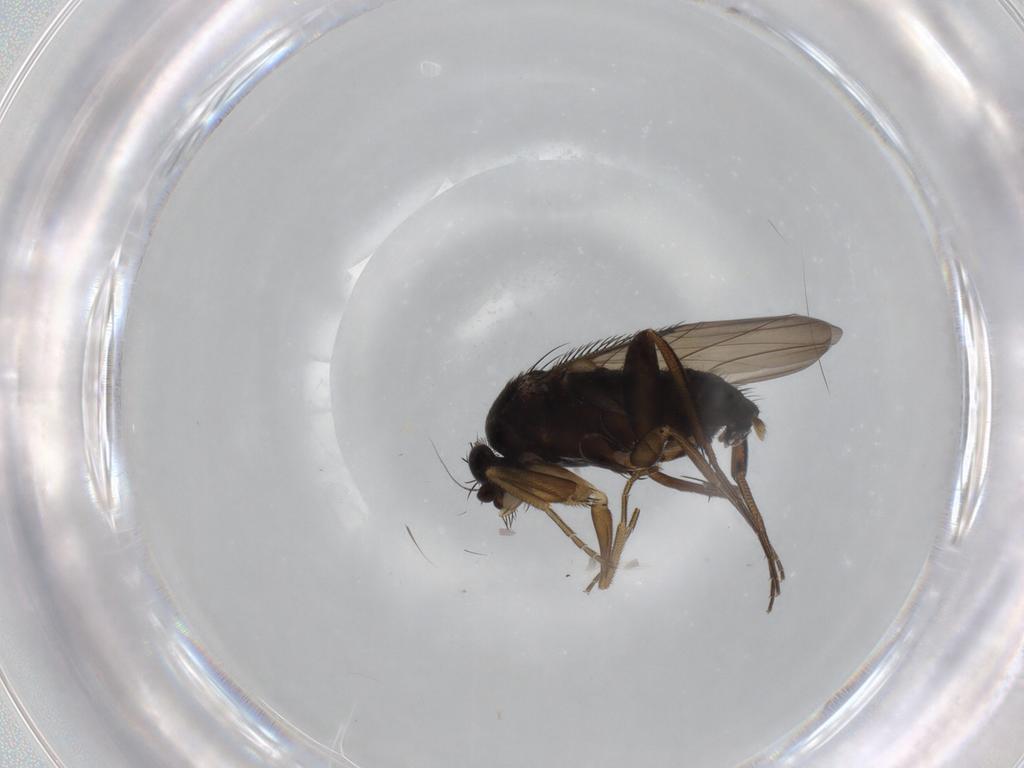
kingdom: Animalia
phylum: Arthropoda
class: Insecta
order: Diptera
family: Phoridae
